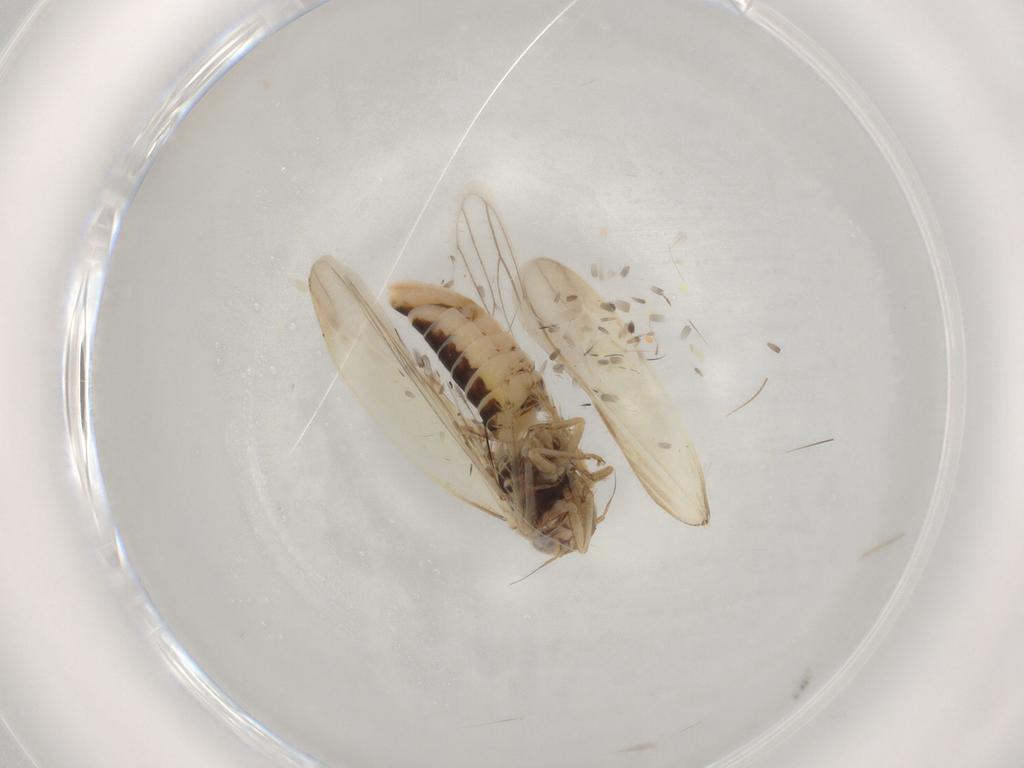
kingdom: Animalia
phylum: Arthropoda
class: Insecta
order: Hemiptera
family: Cicadellidae
